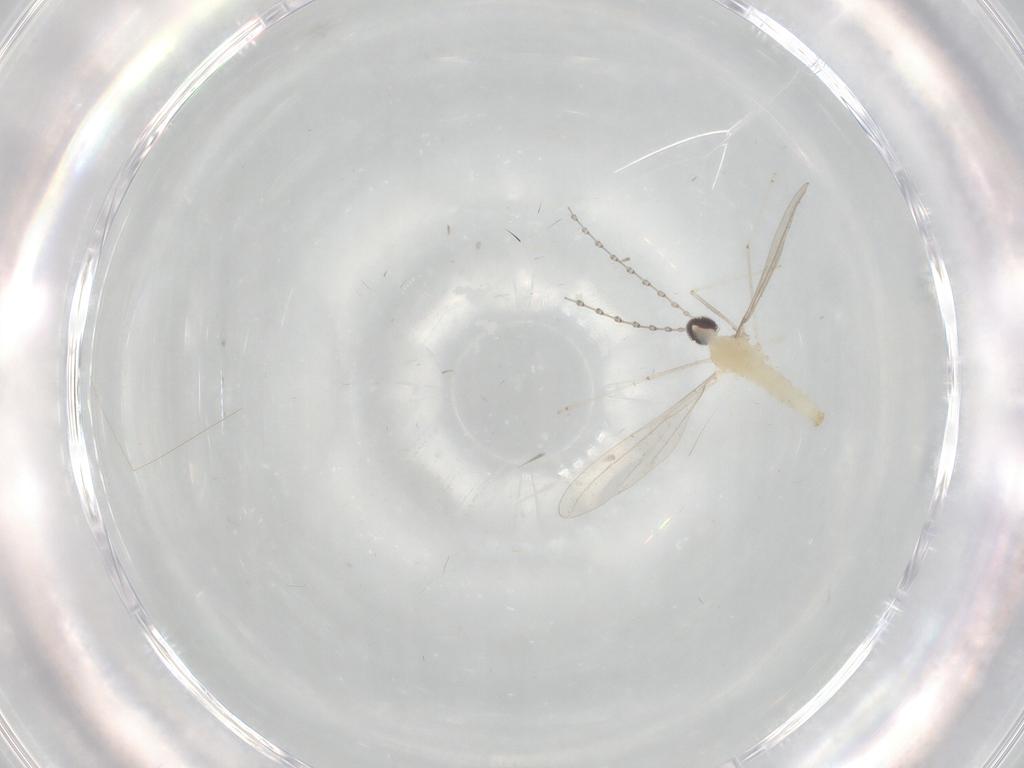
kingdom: Animalia
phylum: Arthropoda
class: Insecta
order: Diptera
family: Cecidomyiidae
